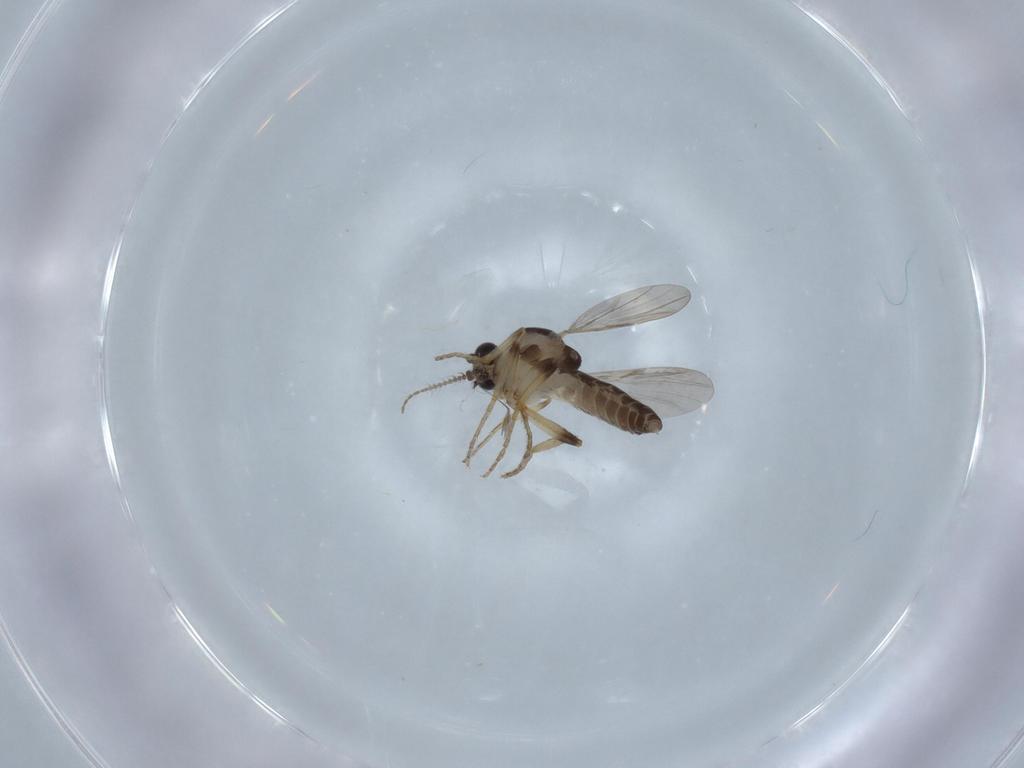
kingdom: Animalia
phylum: Arthropoda
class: Insecta
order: Diptera
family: Ceratopogonidae
